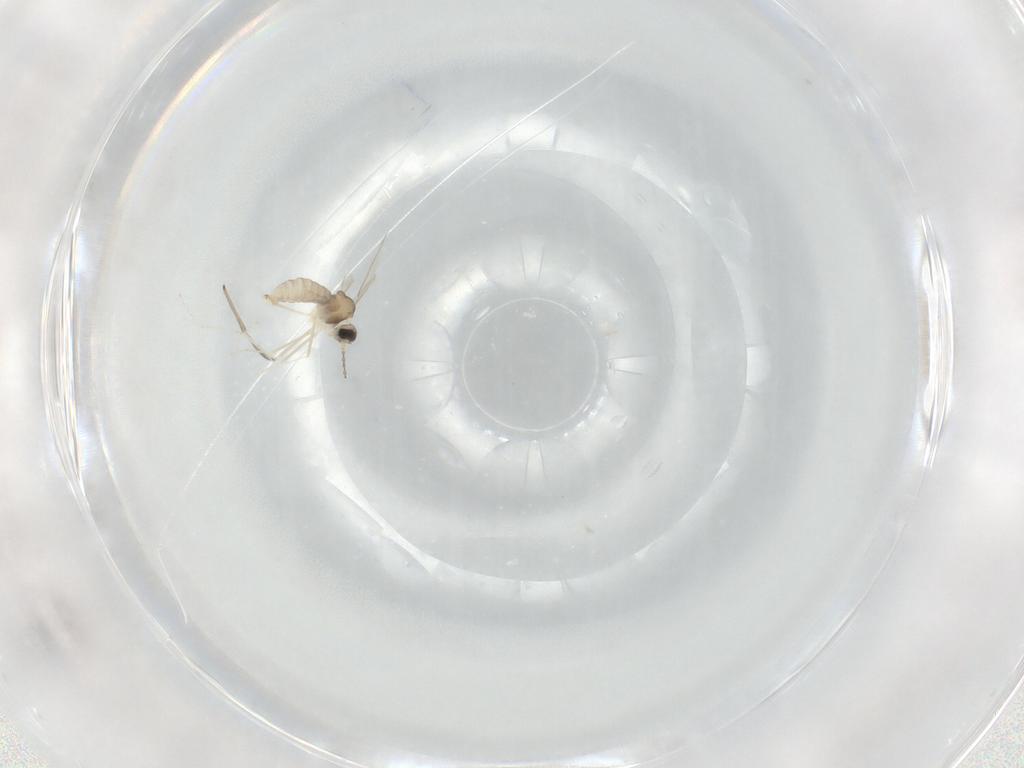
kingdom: Animalia
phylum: Arthropoda
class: Insecta
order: Diptera
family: Cecidomyiidae
